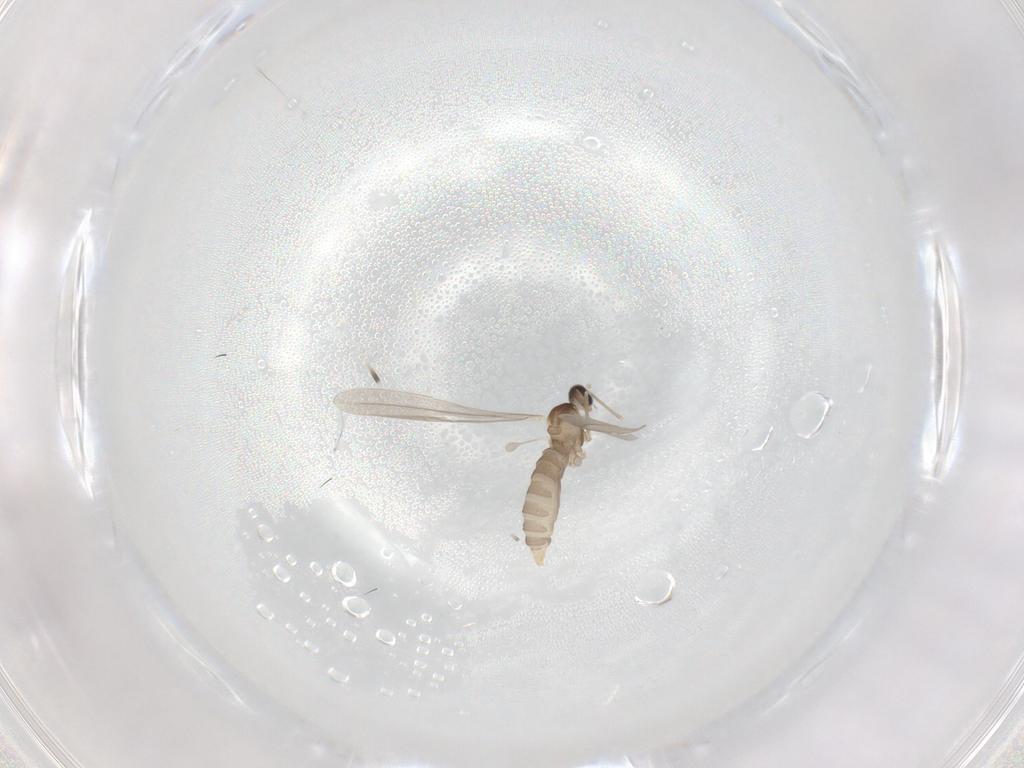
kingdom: Animalia
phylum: Arthropoda
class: Insecta
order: Diptera
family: Cecidomyiidae
